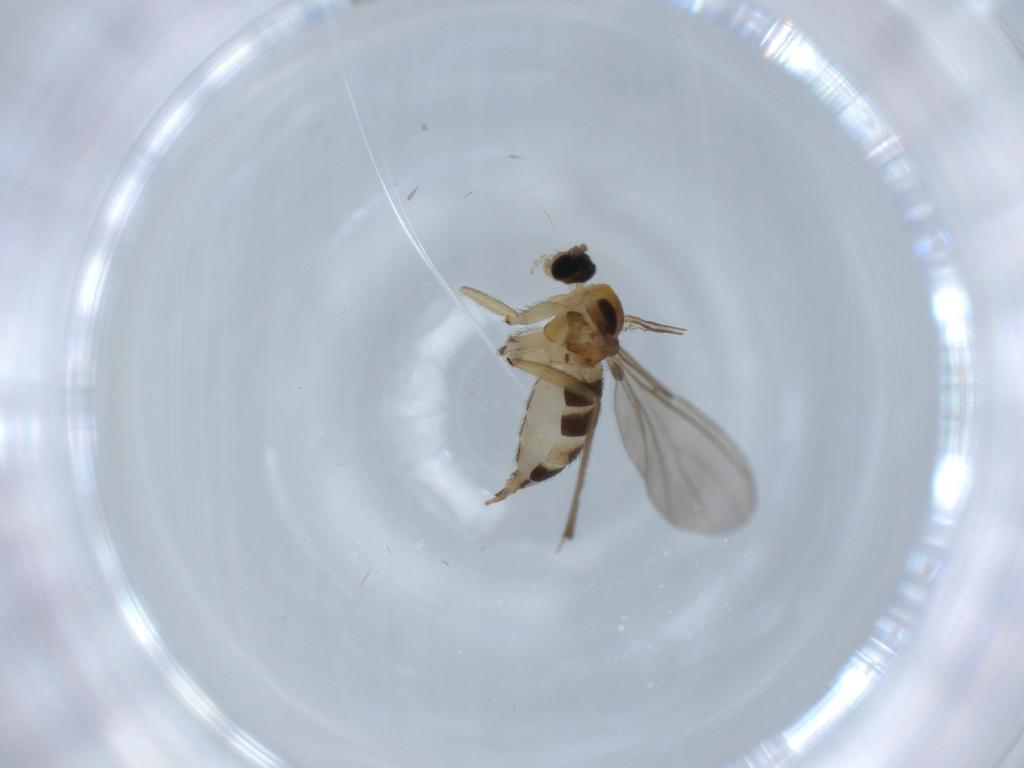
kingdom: Animalia
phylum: Arthropoda
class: Insecta
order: Diptera
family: Sciaridae
